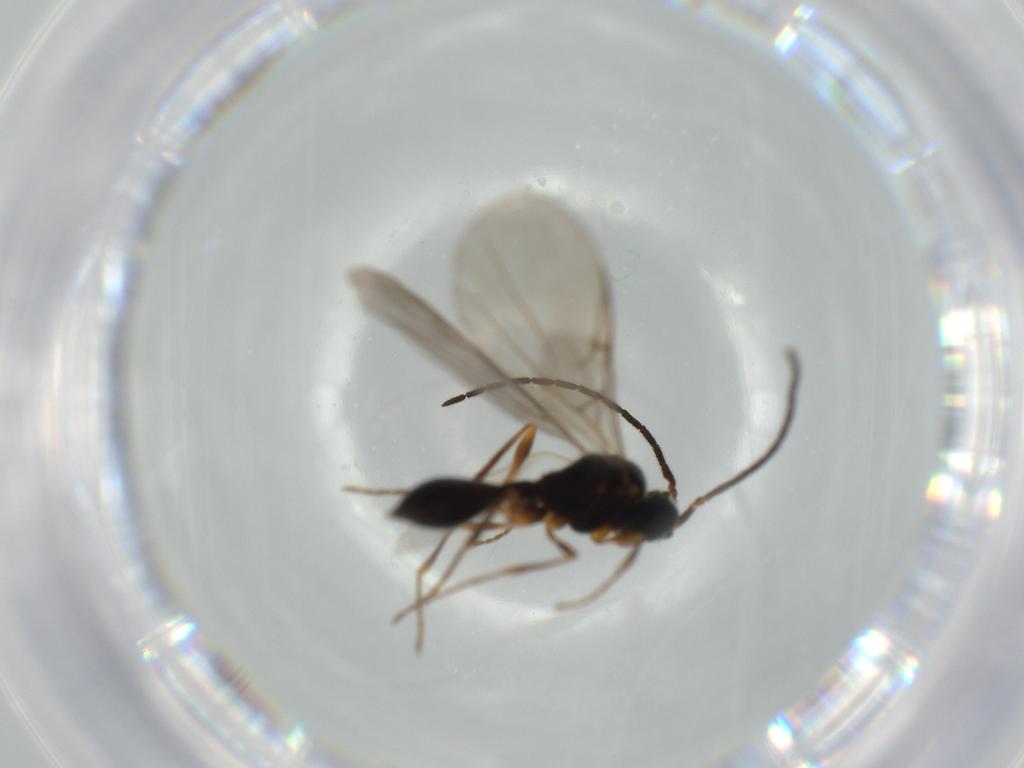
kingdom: Animalia
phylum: Arthropoda
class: Insecta
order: Hymenoptera
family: Diapriidae
